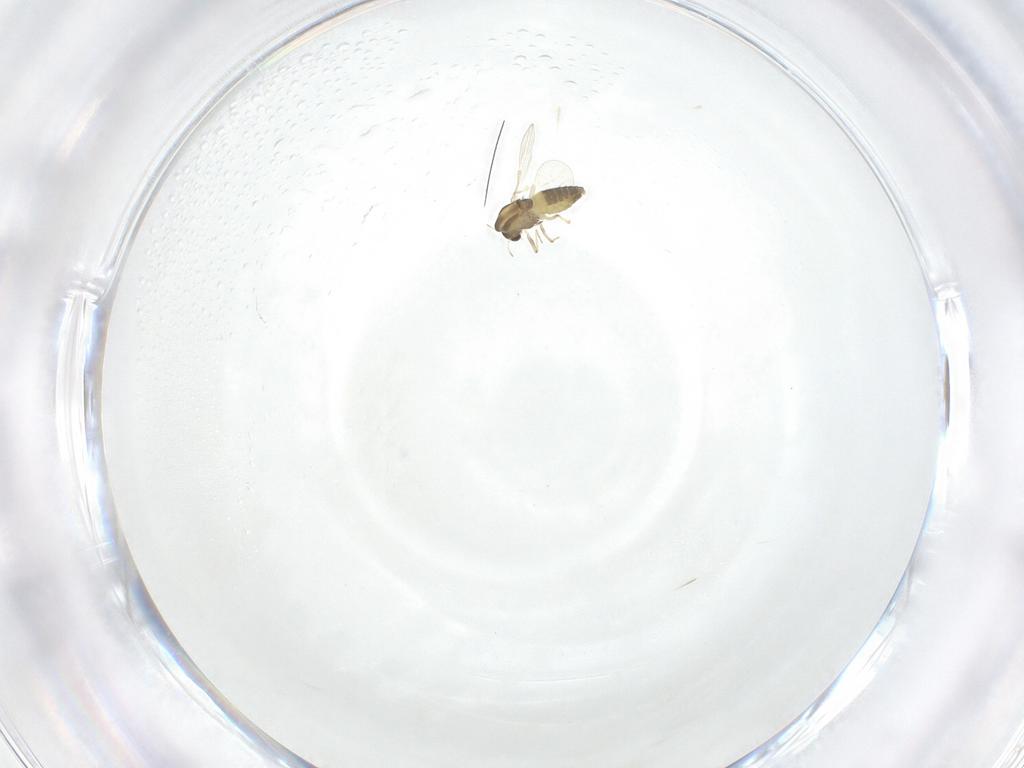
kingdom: Animalia
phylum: Arthropoda
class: Insecta
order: Diptera
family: Chironomidae
